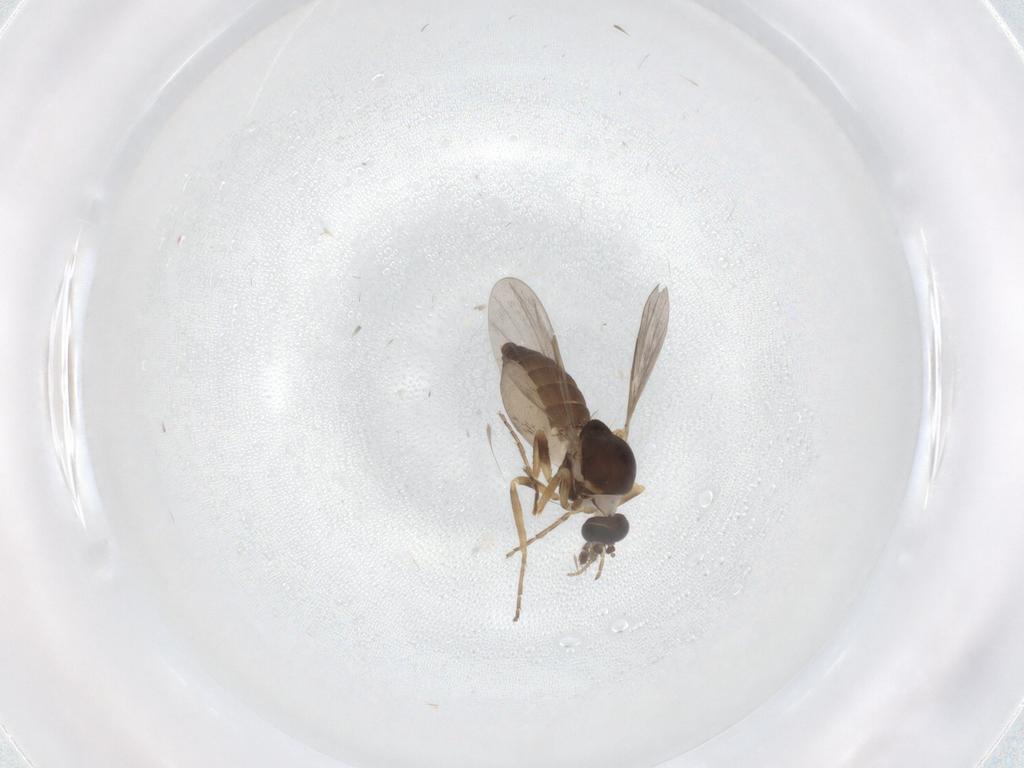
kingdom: Animalia
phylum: Arthropoda
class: Insecta
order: Diptera
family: Ceratopogonidae
